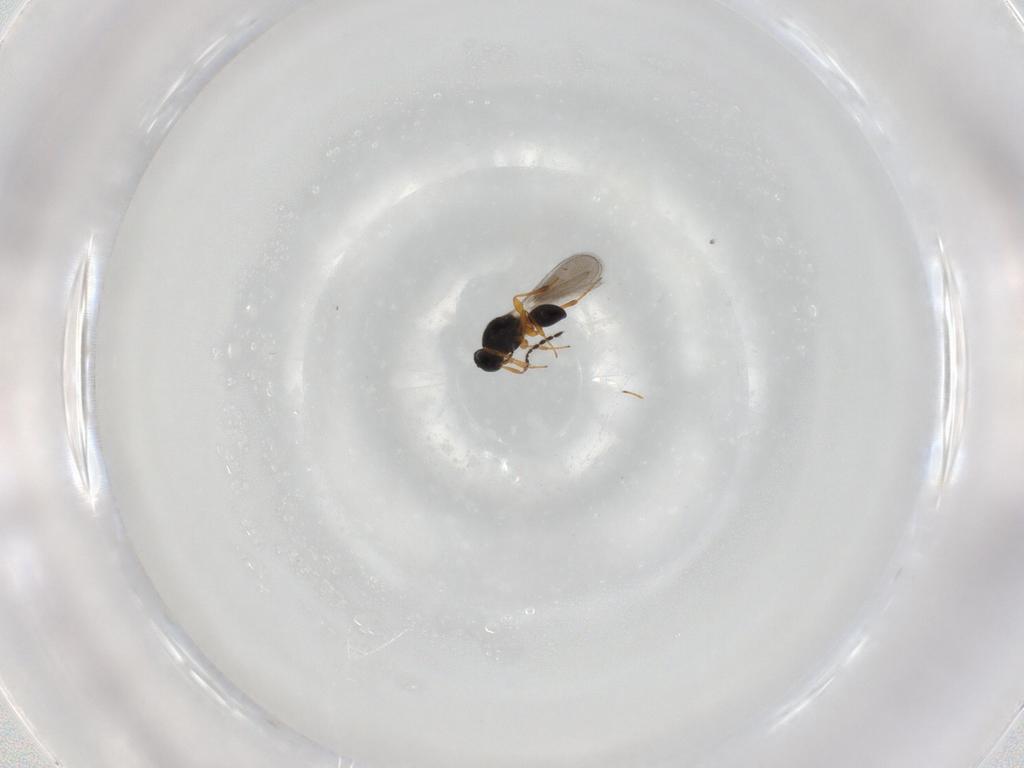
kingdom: Animalia
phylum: Arthropoda
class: Insecta
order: Hymenoptera
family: Platygastridae
